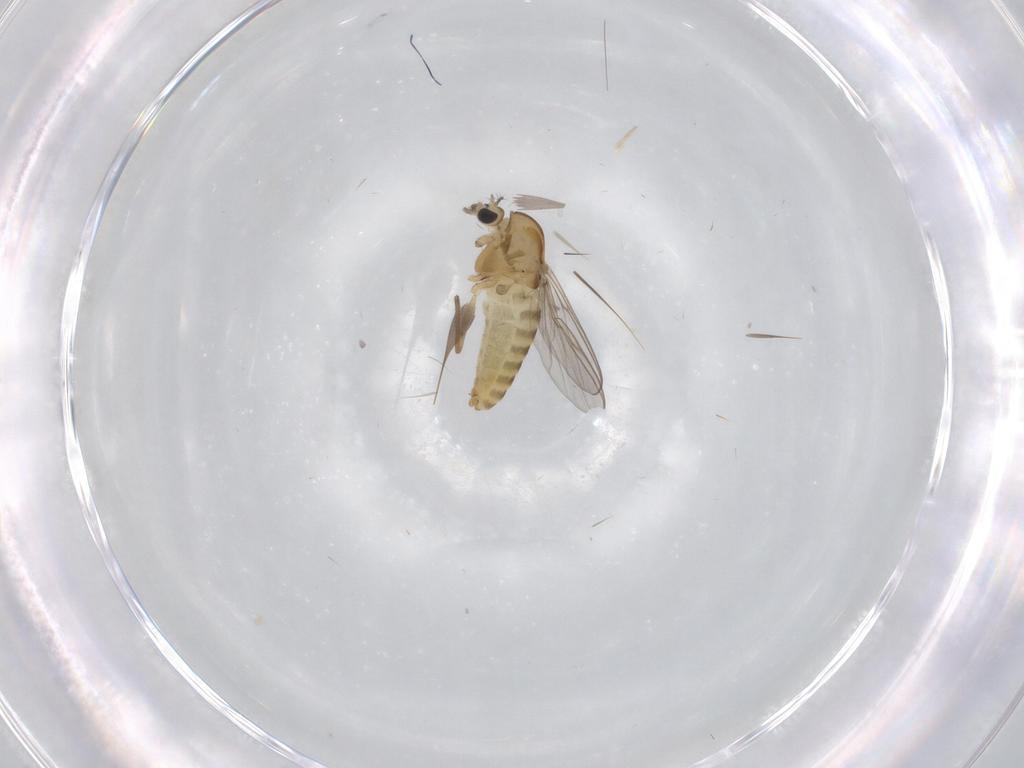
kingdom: Animalia
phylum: Arthropoda
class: Insecta
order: Diptera
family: Chironomidae
